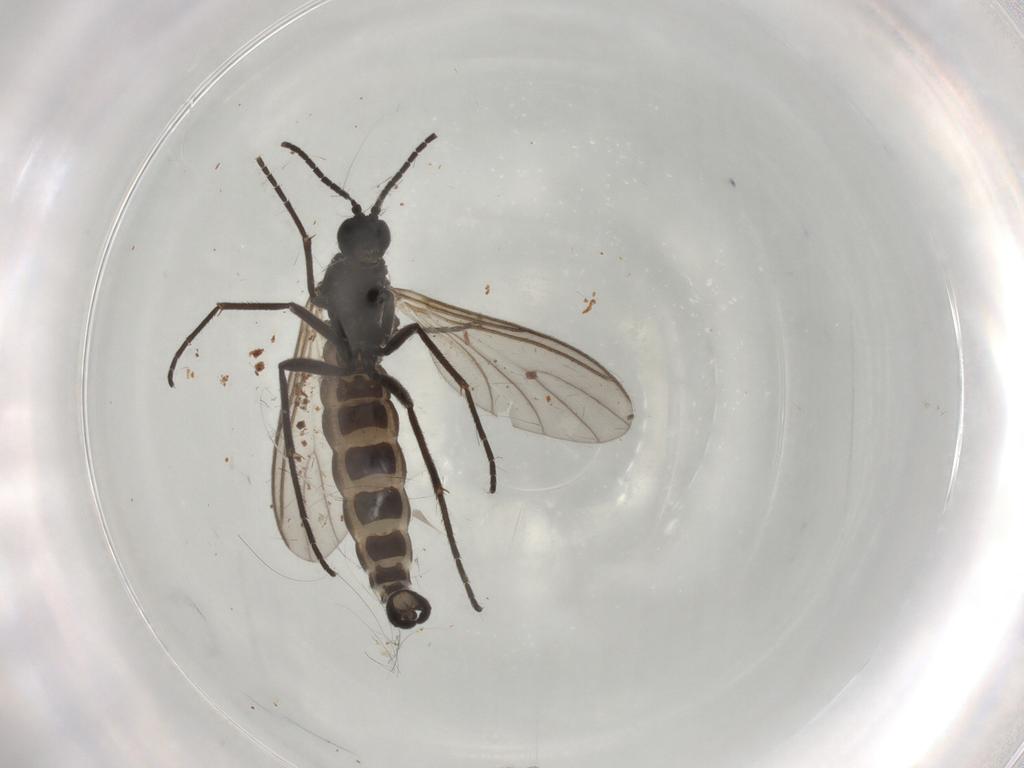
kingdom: Animalia
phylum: Arthropoda
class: Insecta
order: Diptera
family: Sciaridae
